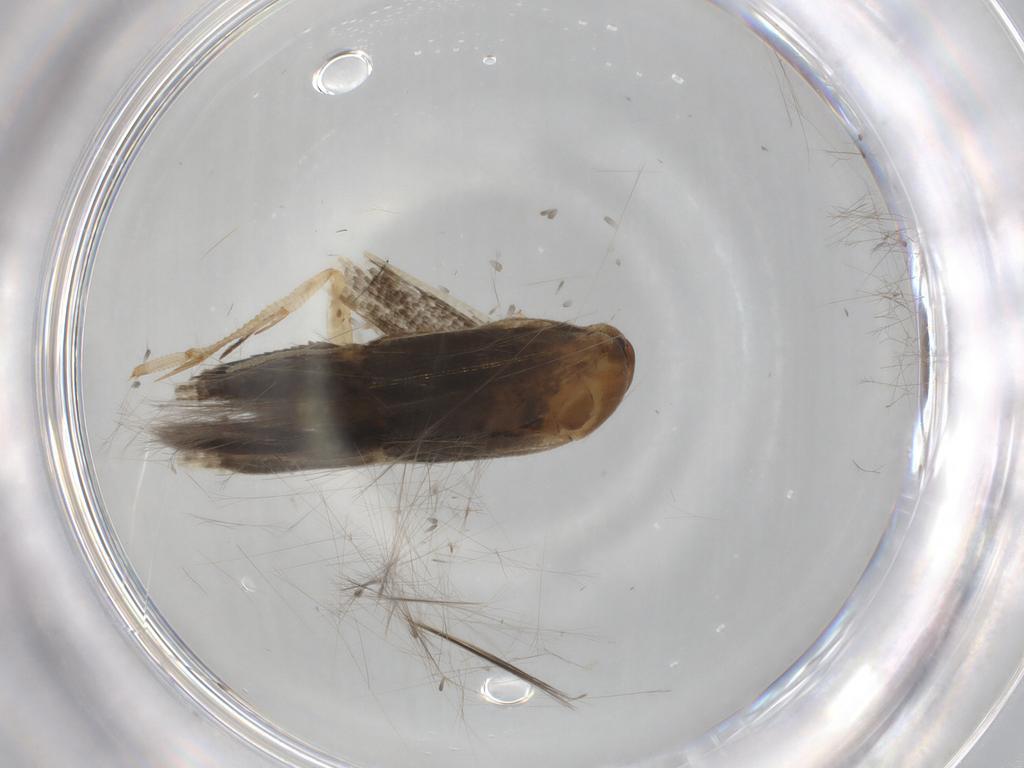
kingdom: Animalia
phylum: Arthropoda
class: Insecta
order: Lepidoptera
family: Cosmopterigidae
